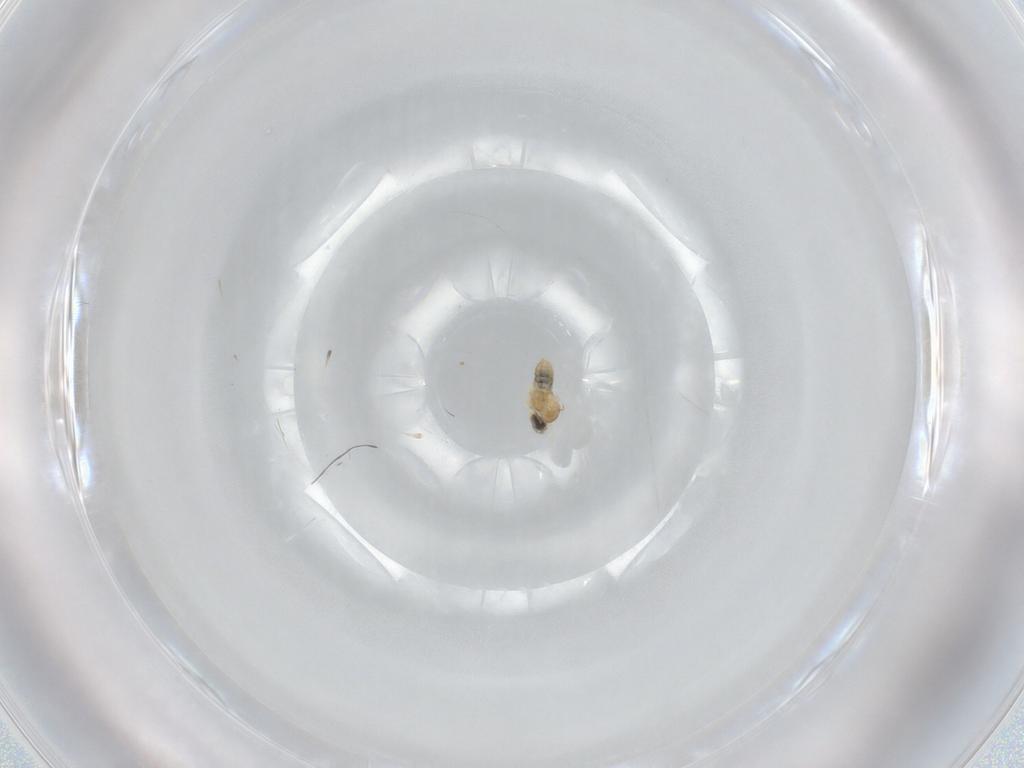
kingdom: Animalia
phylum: Arthropoda
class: Insecta
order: Diptera
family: Cecidomyiidae
